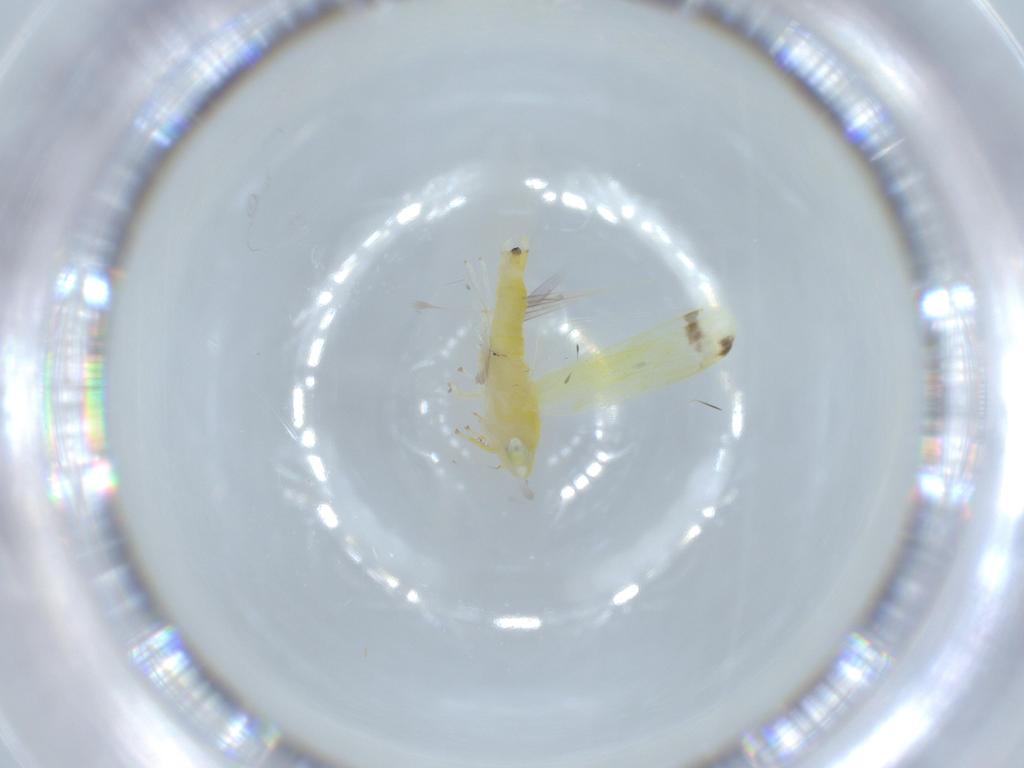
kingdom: Animalia
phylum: Arthropoda
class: Insecta
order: Hemiptera
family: Cicadellidae
